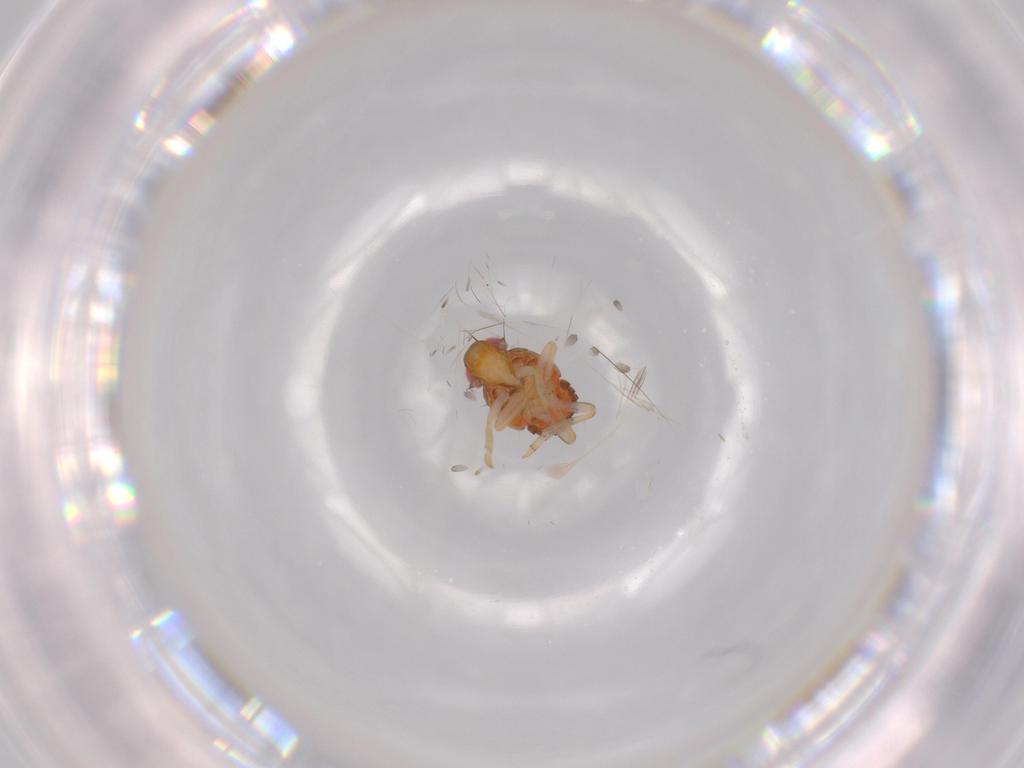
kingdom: Animalia
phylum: Arthropoda
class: Insecta
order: Hemiptera
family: Issidae
